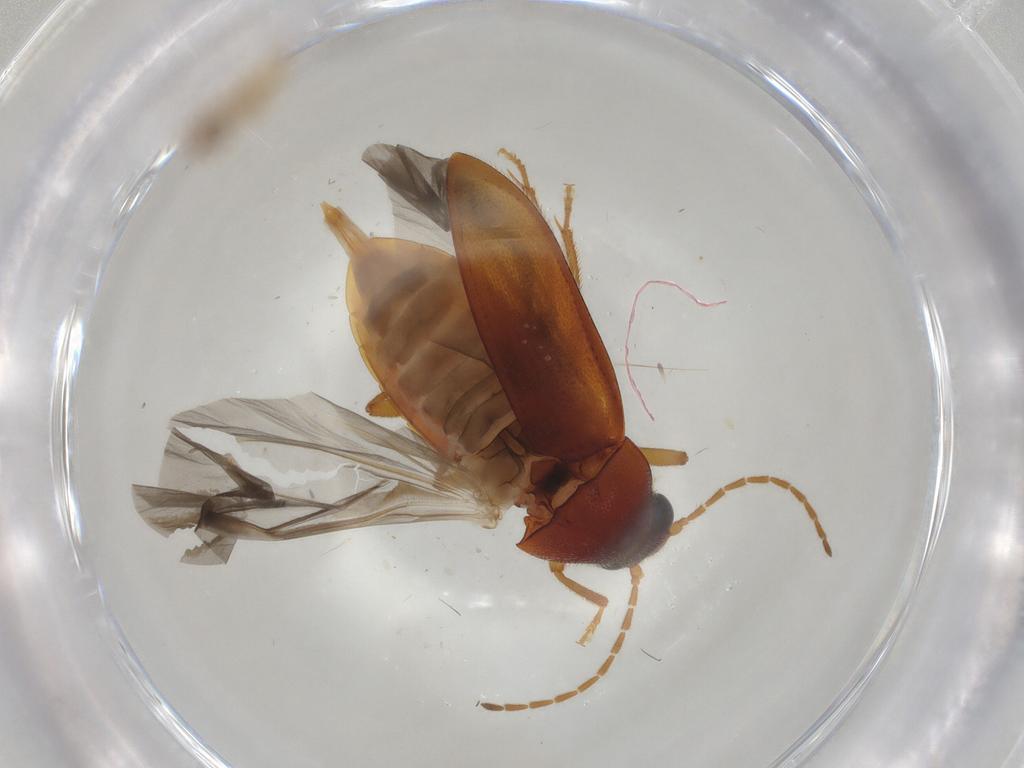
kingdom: Animalia
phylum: Arthropoda
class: Insecta
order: Coleoptera
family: Ptilodactylidae
